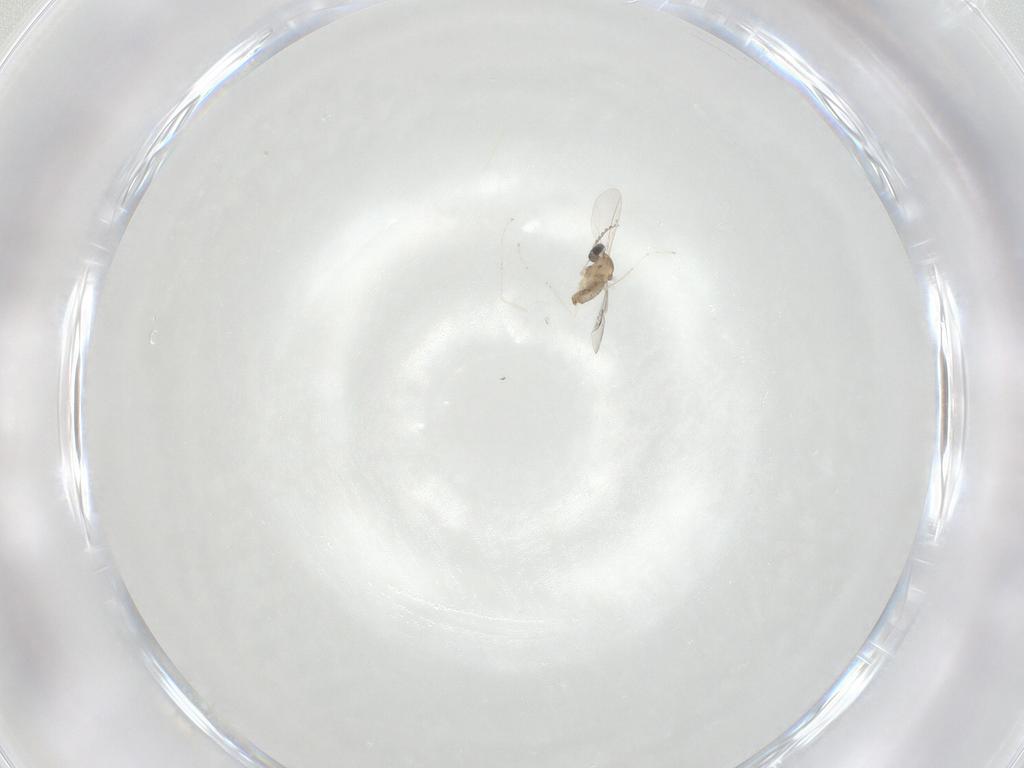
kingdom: Animalia
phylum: Arthropoda
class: Insecta
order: Diptera
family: Cecidomyiidae
